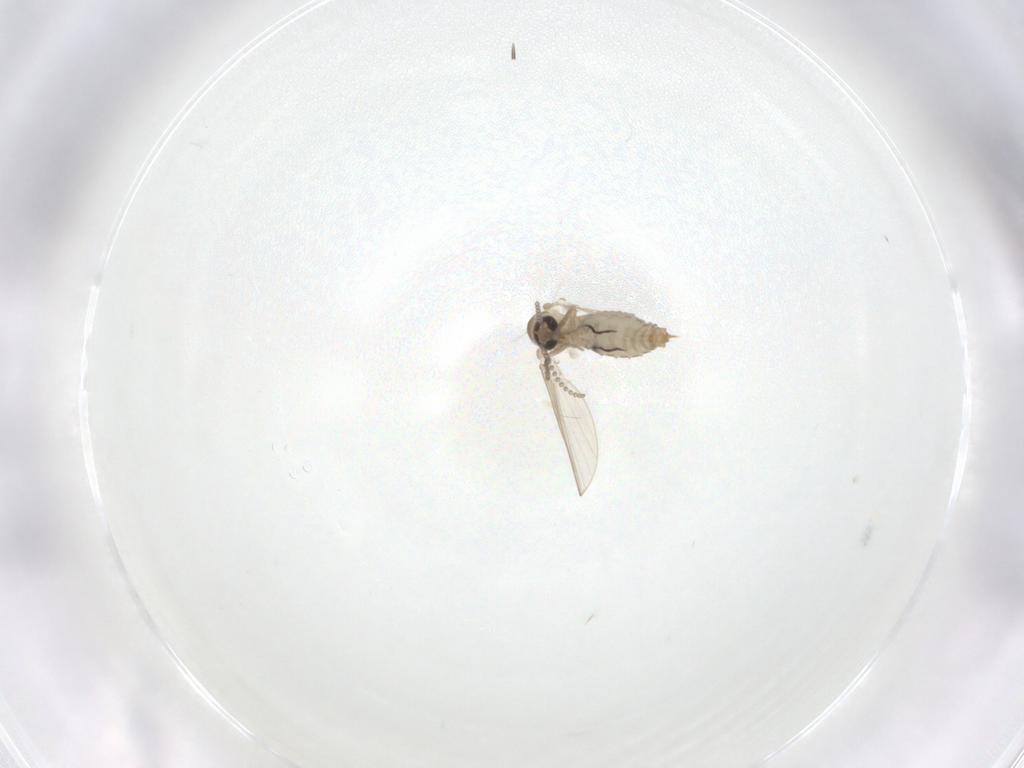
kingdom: Animalia
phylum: Arthropoda
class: Insecta
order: Diptera
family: Psychodidae
